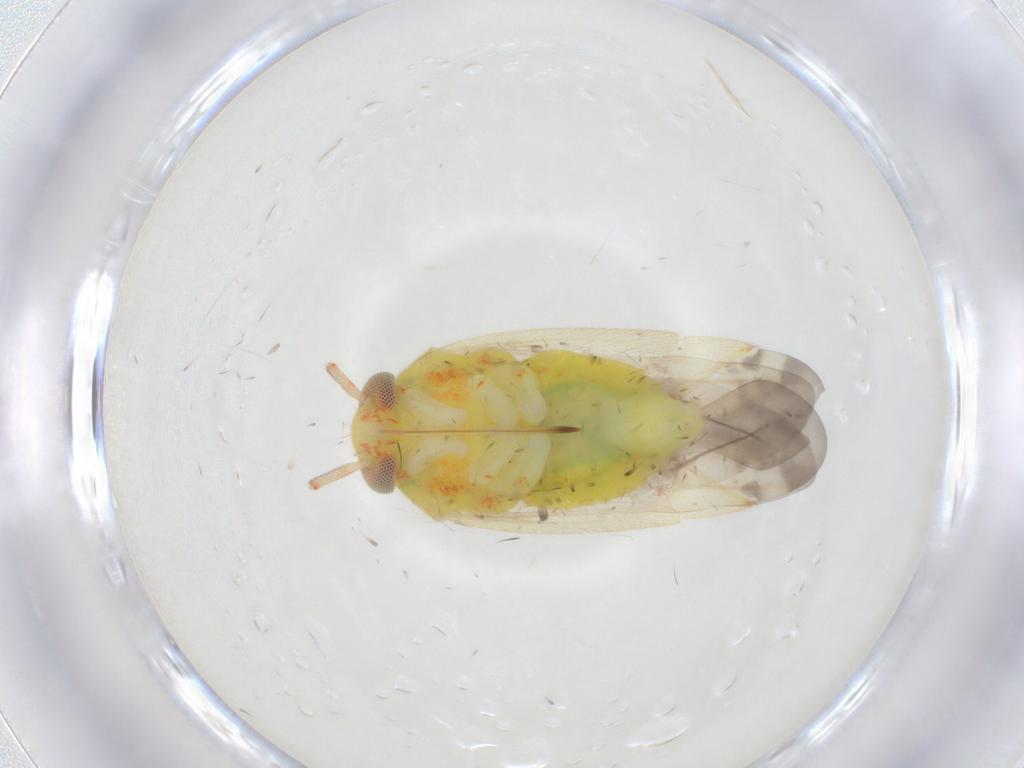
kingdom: Animalia
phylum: Arthropoda
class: Insecta
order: Hemiptera
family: Miridae
